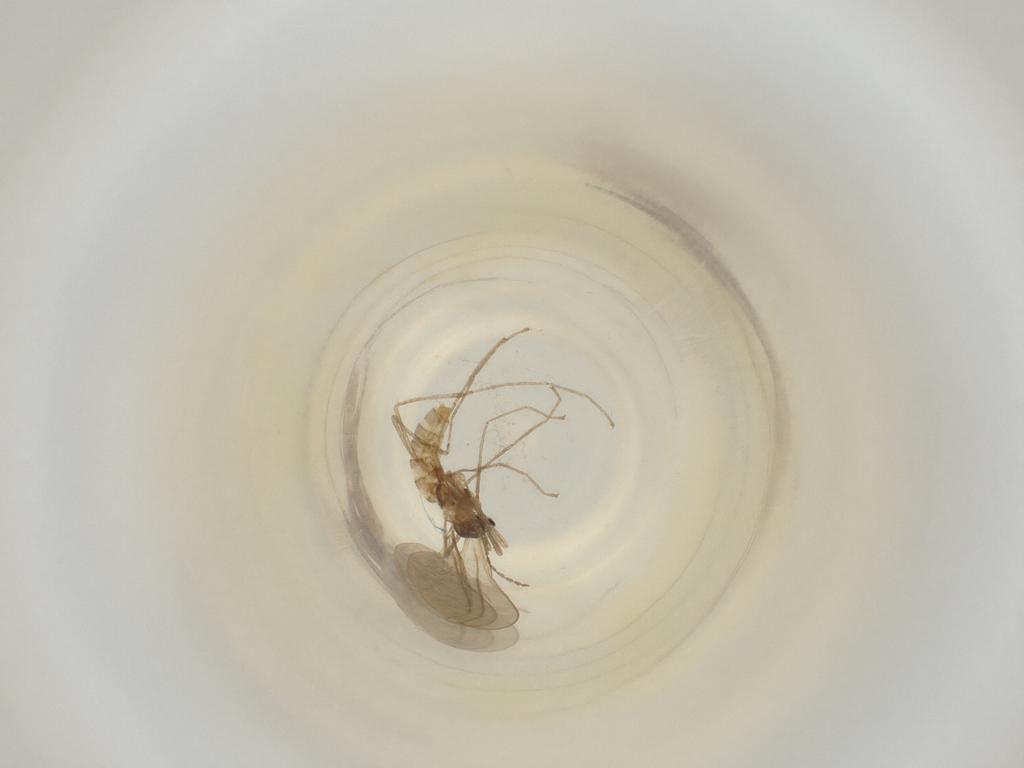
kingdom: Animalia
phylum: Arthropoda
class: Insecta
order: Diptera
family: Cecidomyiidae
